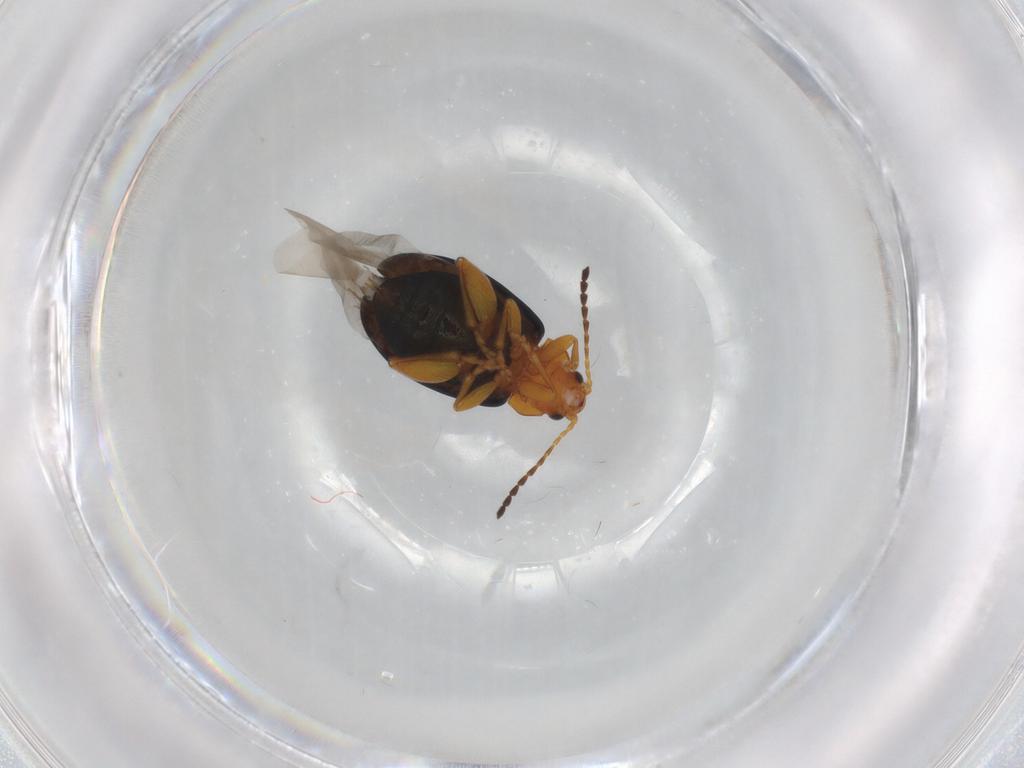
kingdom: Animalia
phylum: Arthropoda
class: Insecta
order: Coleoptera
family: Chrysomelidae
